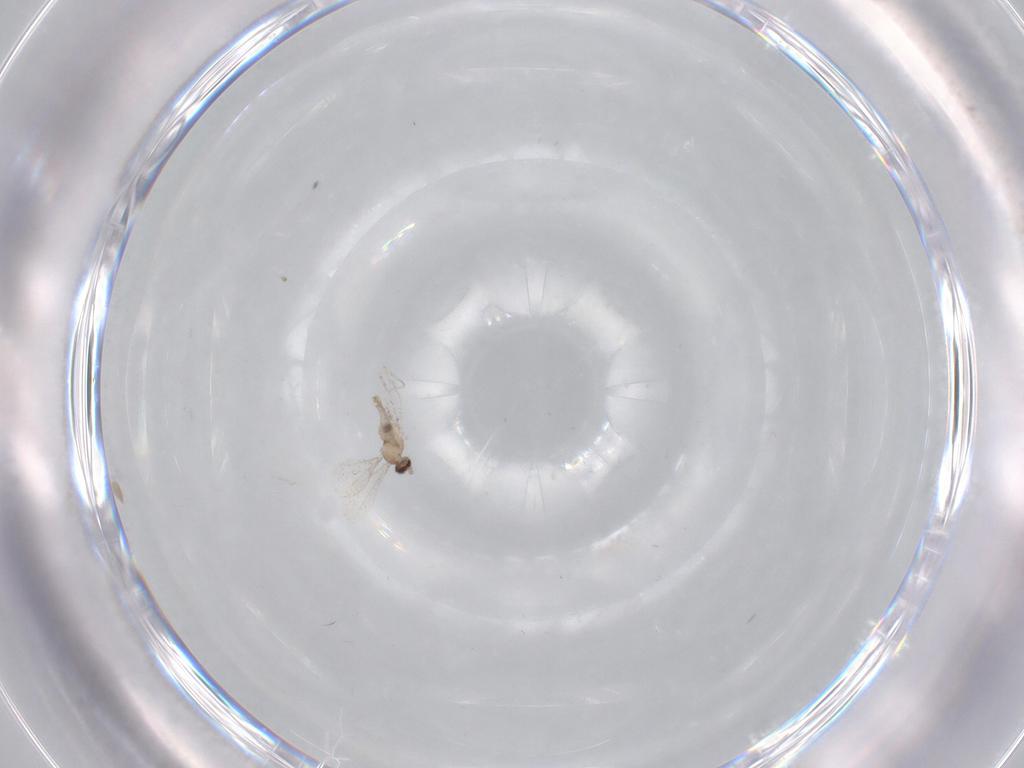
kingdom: Animalia
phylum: Arthropoda
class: Insecta
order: Diptera
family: Cecidomyiidae
